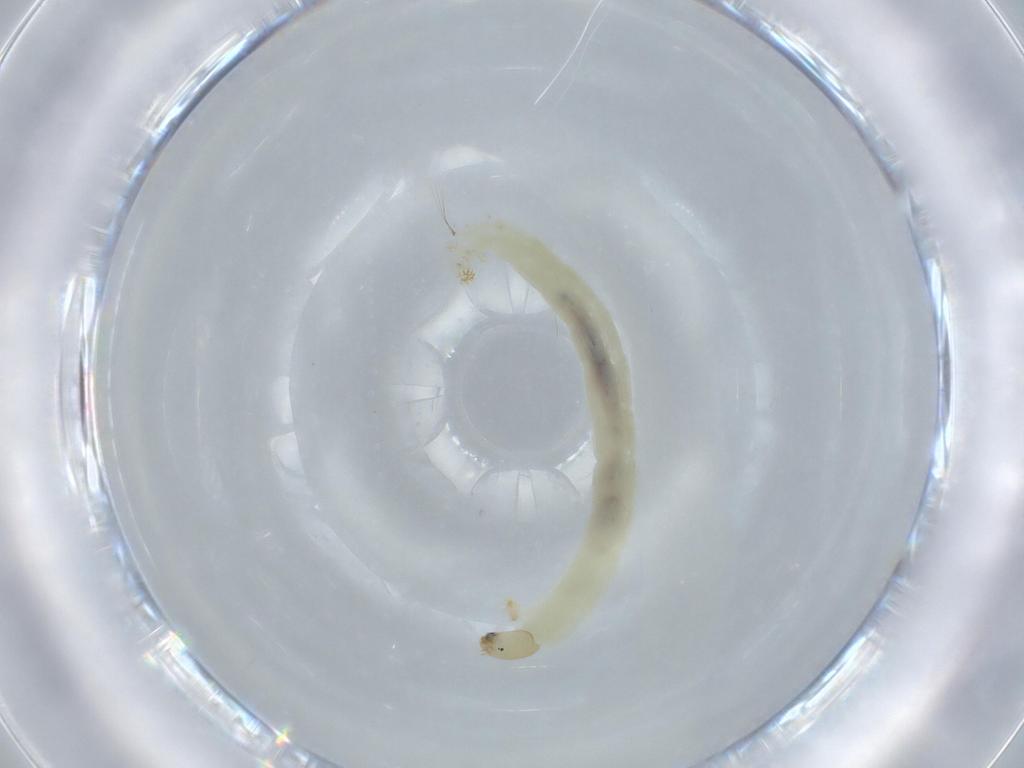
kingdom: Animalia
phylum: Arthropoda
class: Insecta
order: Diptera
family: Chironomidae
